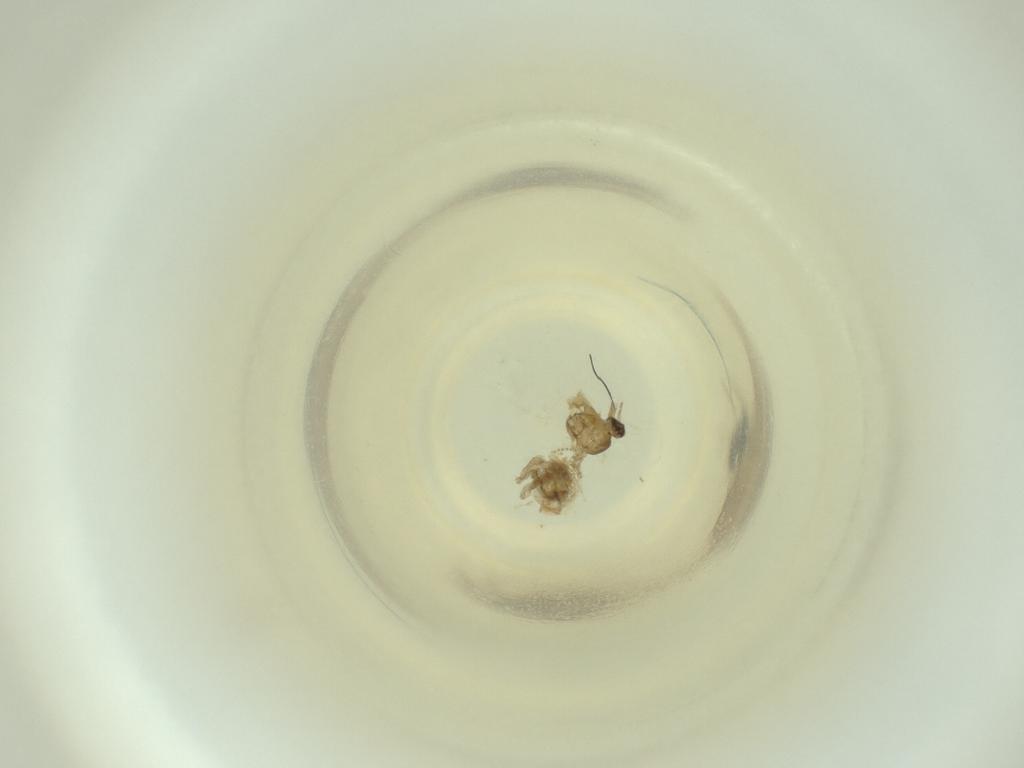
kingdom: Animalia
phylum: Arthropoda
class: Insecta
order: Diptera
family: Cecidomyiidae
